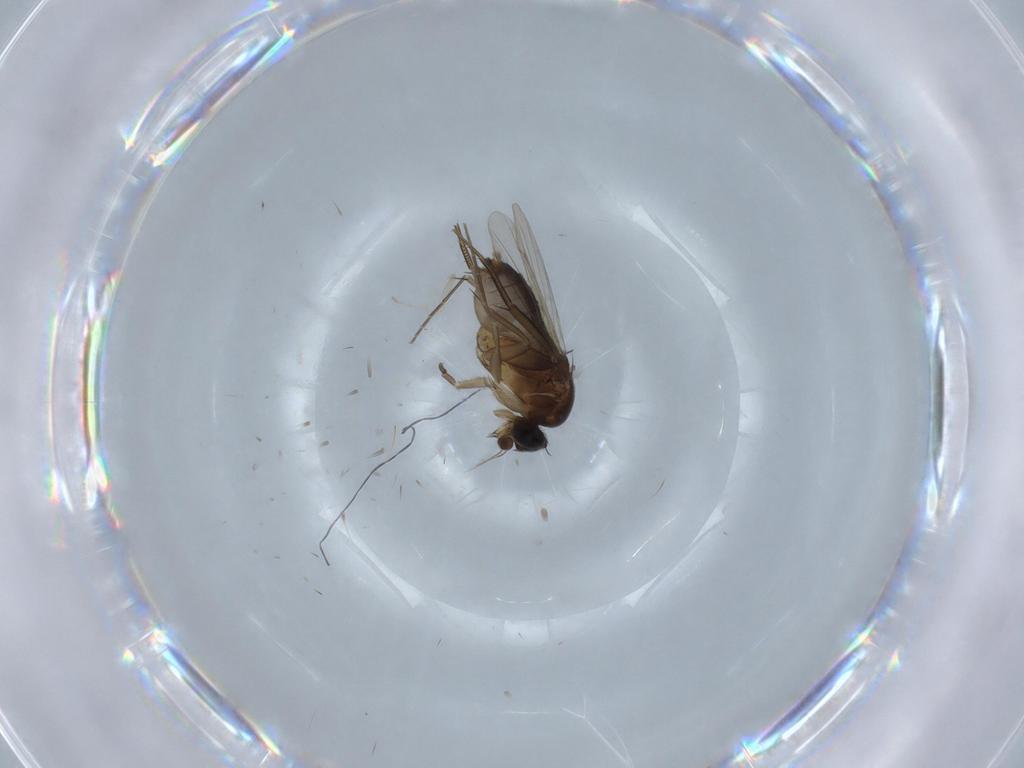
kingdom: Animalia
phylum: Arthropoda
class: Insecta
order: Diptera
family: Phoridae
